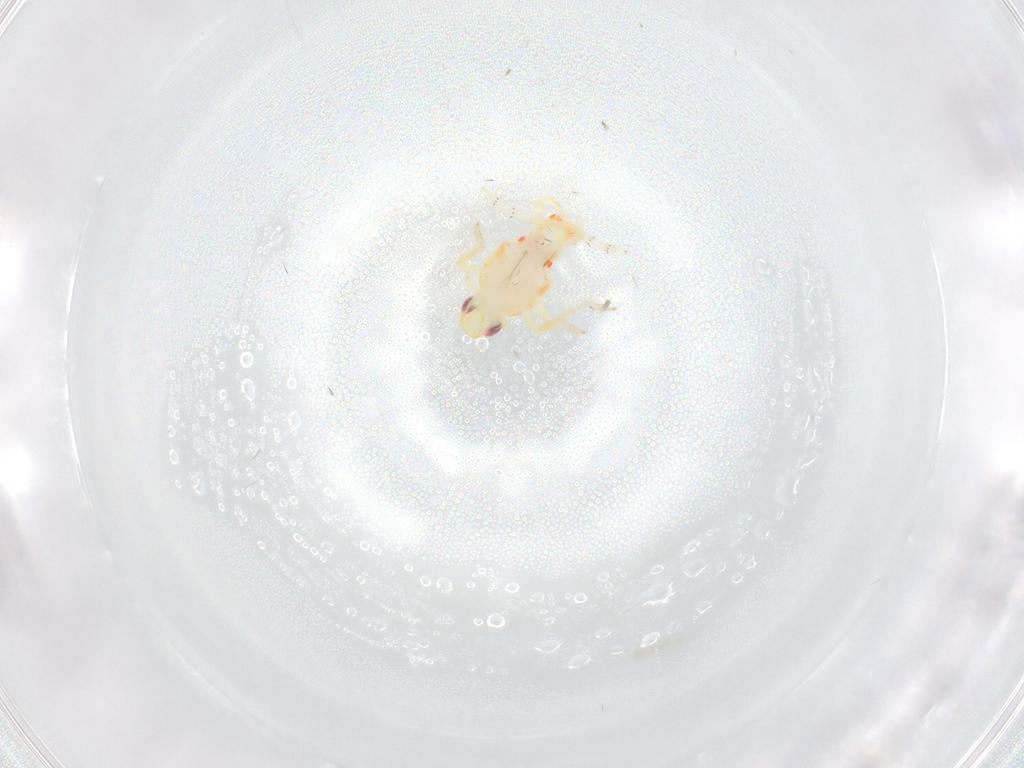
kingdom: Animalia
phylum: Arthropoda
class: Insecta
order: Hemiptera
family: Tropiduchidae
